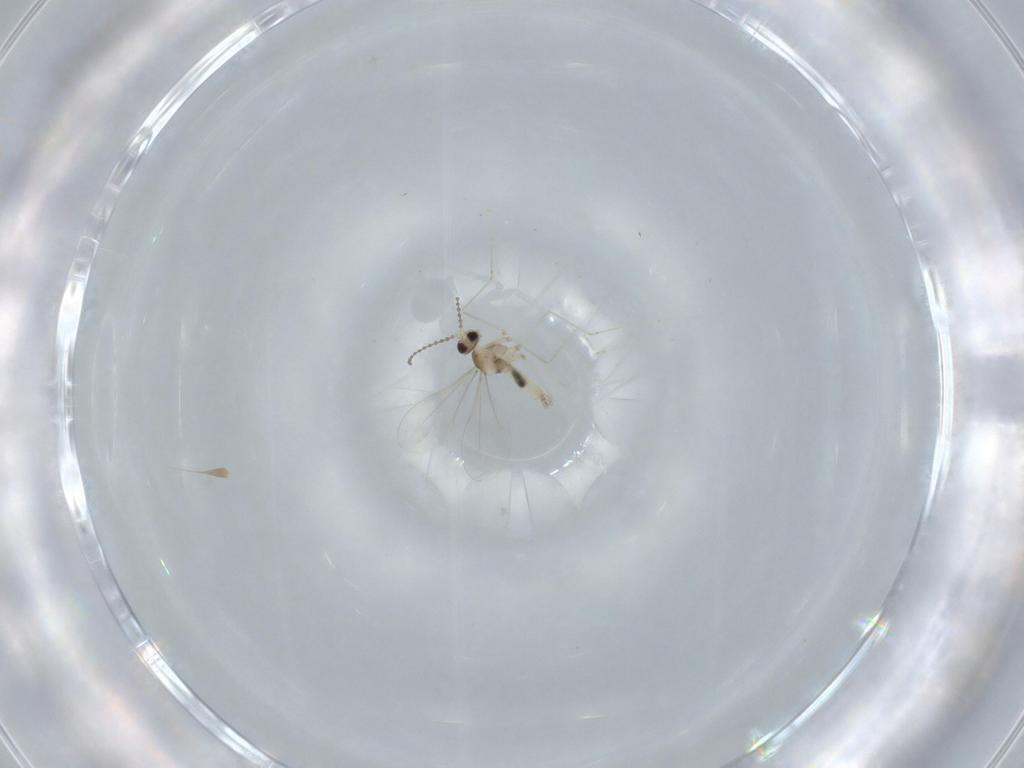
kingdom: Animalia
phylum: Arthropoda
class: Insecta
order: Diptera
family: Cecidomyiidae
